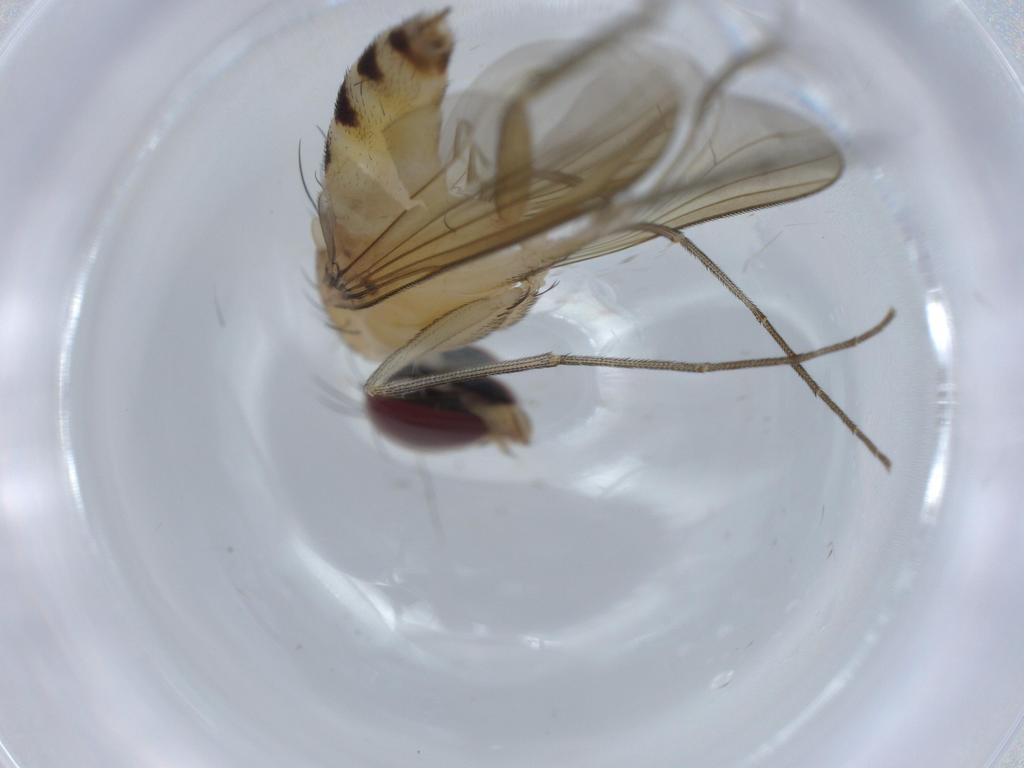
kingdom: Animalia
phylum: Arthropoda
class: Insecta
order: Diptera
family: Dolichopodidae
